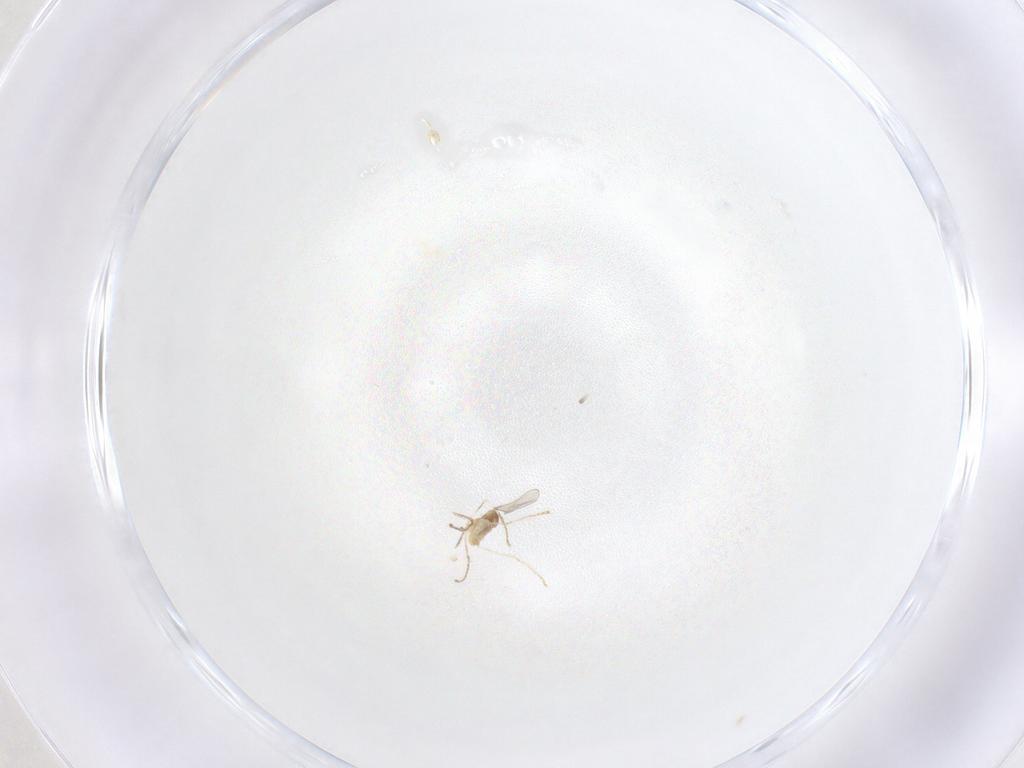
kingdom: Animalia
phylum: Arthropoda
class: Insecta
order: Diptera
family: Cecidomyiidae
